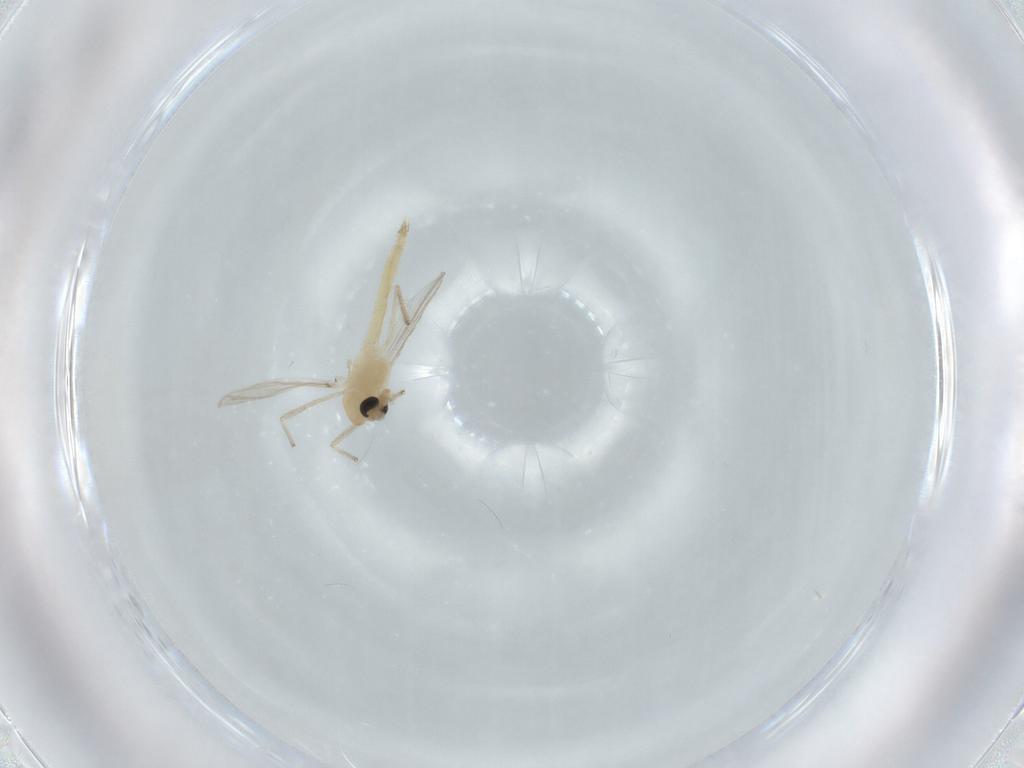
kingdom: Animalia
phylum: Arthropoda
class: Insecta
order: Diptera
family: Chironomidae
